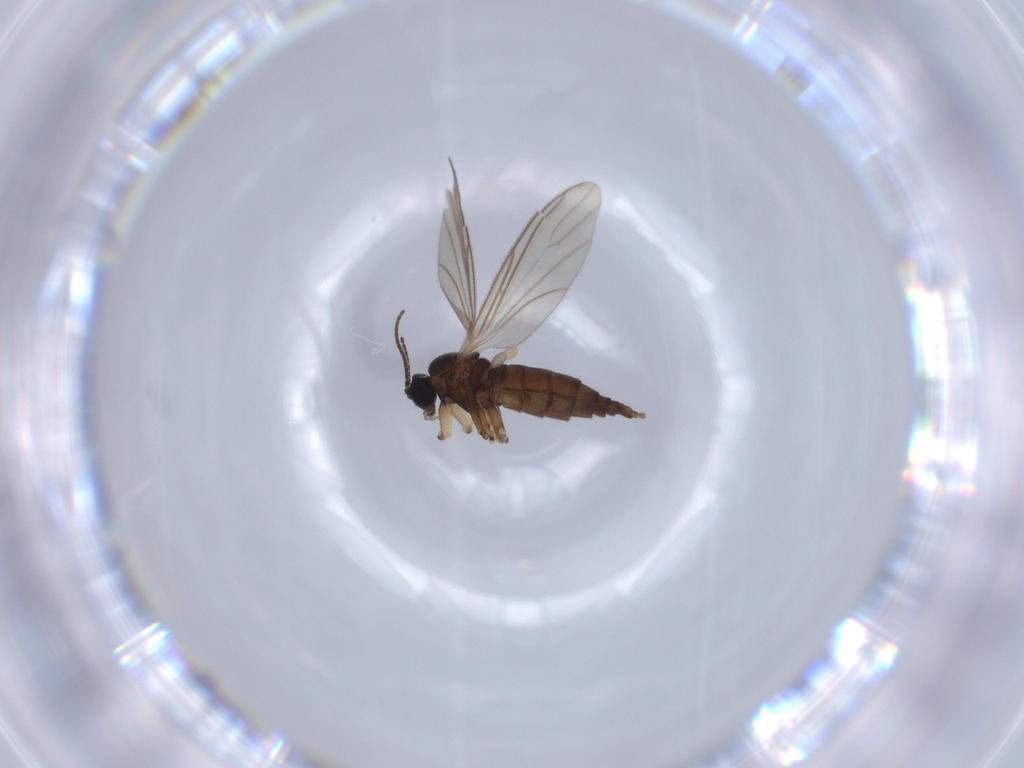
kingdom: Animalia
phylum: Arthropoda
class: Insecta
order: Diptera
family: Sciaridae
